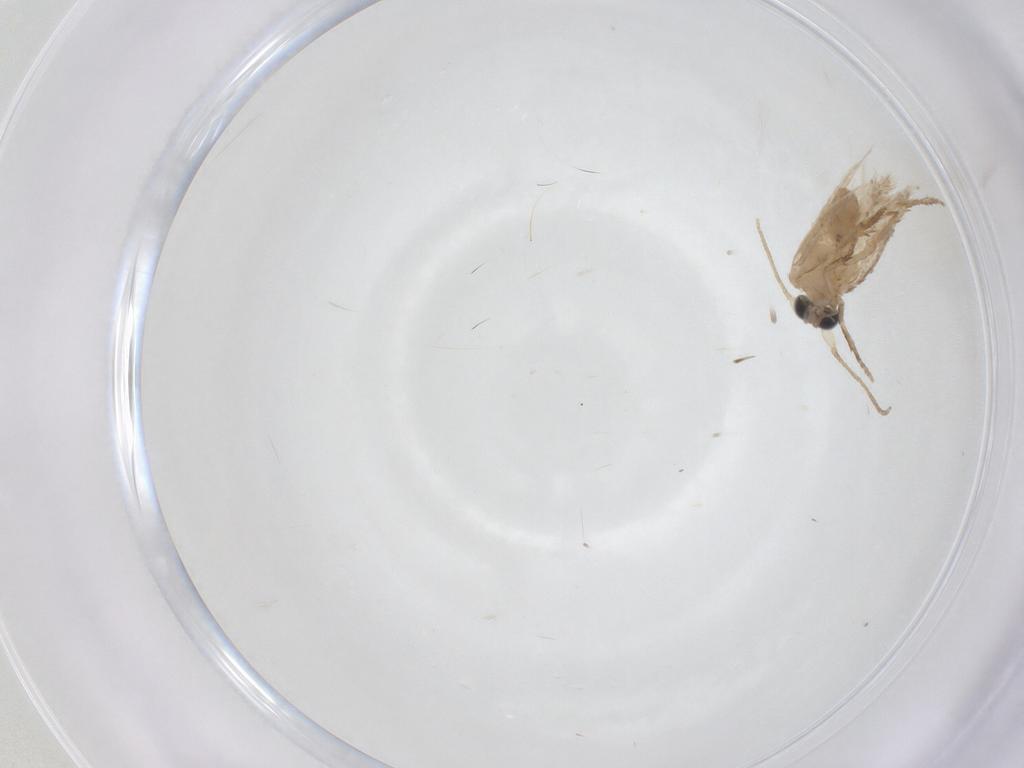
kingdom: Animalia
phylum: Arthropoda
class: Insecta
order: Lepidoptera
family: Nepticulidae
